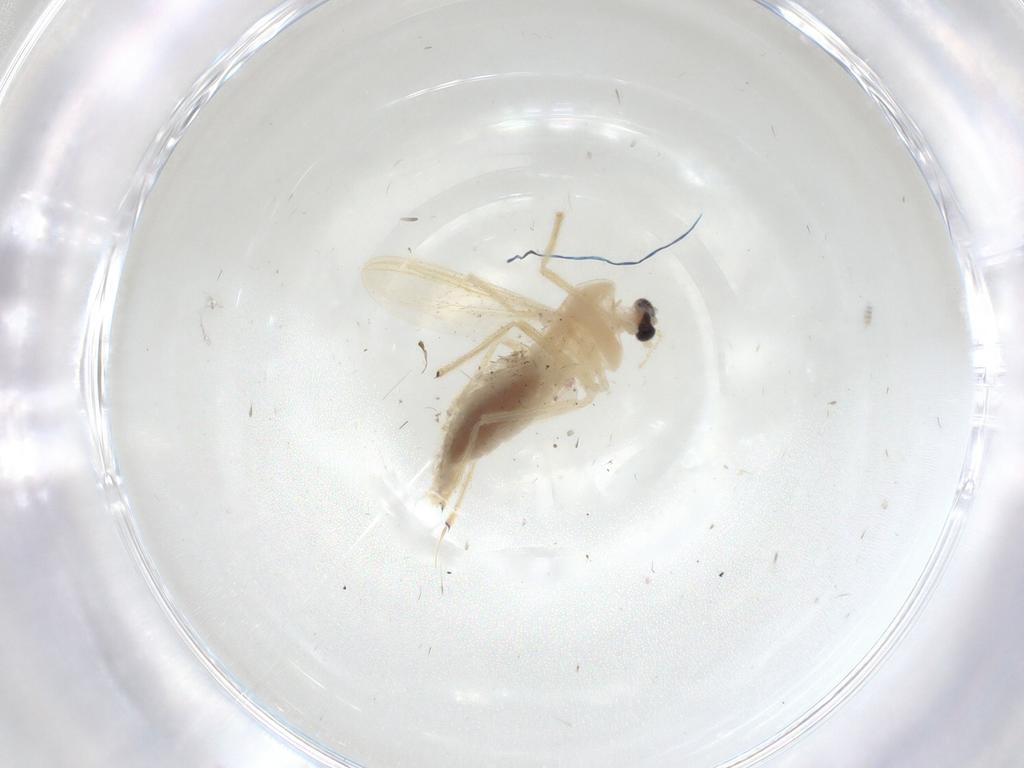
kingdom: Animalia
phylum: Arthropoda
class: Insecta
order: Diptera
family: Chironomidae
